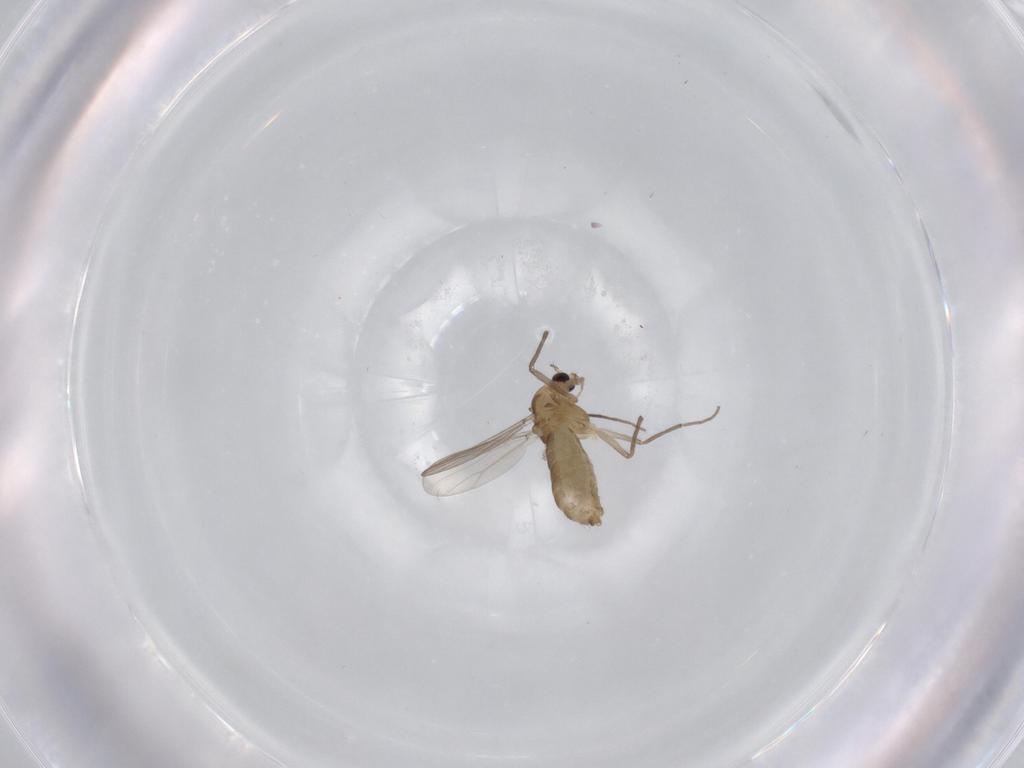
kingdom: Animalia
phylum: Arthropoda
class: Insecta
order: Diptera
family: Chironomidae
